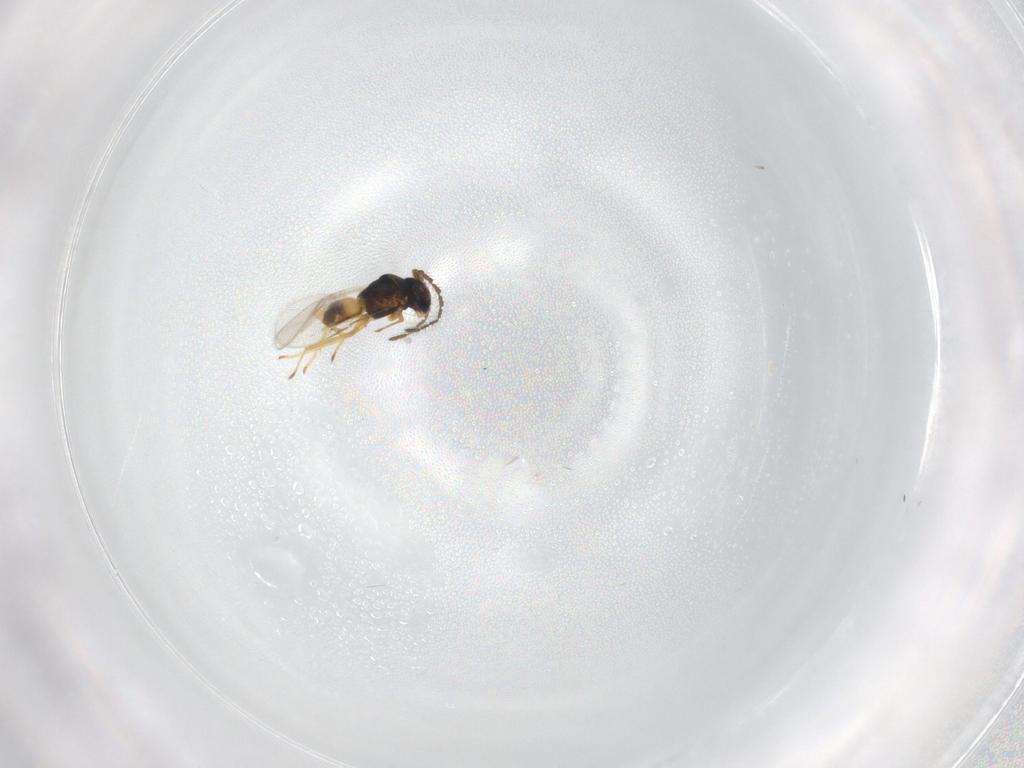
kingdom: Animalia
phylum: Arthropoda
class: Insecta
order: Hymenoptera
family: Encyrtidae
